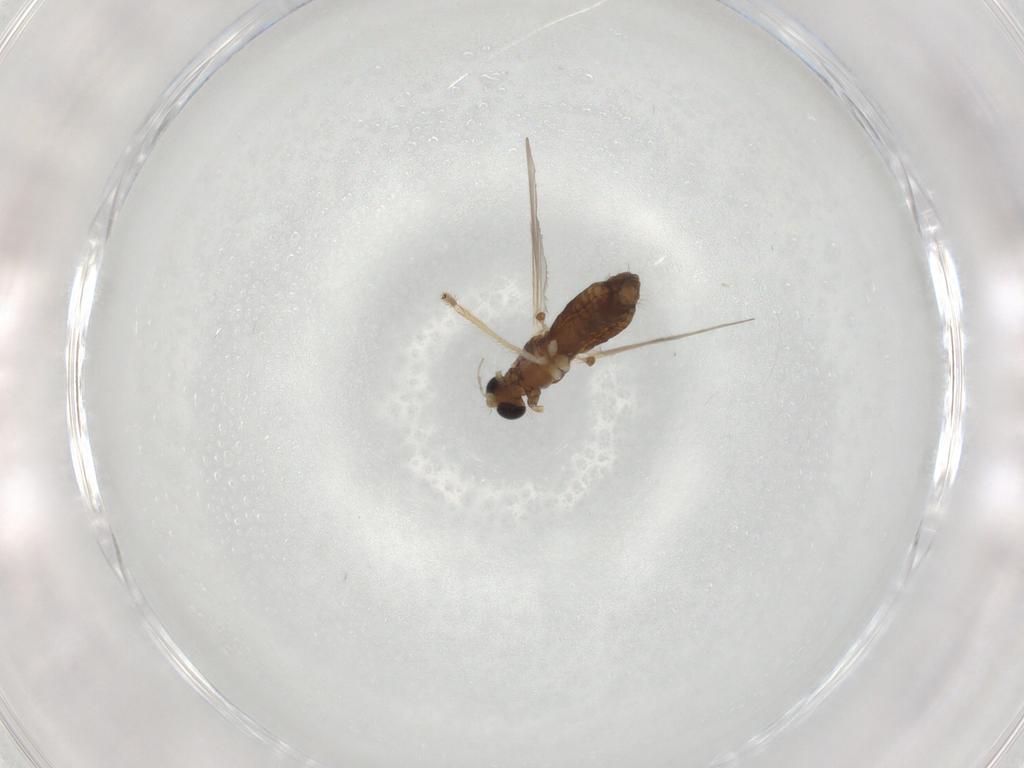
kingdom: Animalia
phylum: Arthropoda
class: Insecta
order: Diptera
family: Chironomidae
